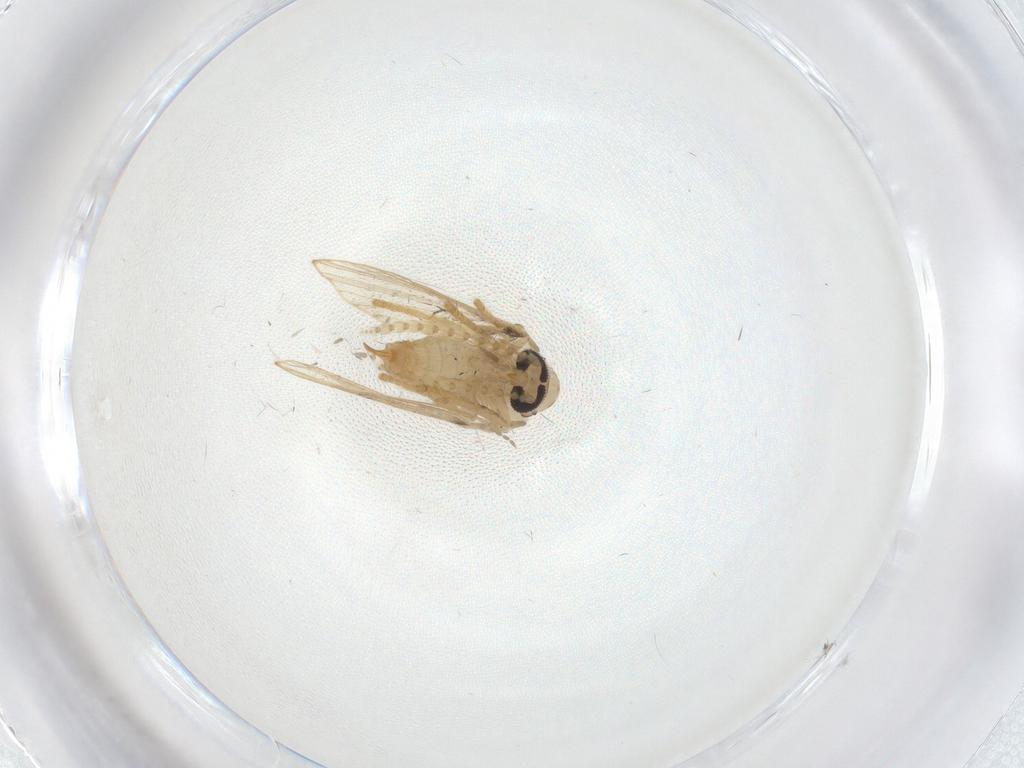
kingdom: Animalia
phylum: Arthropoda
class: Insecta
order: Diptera
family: Psychodidae
